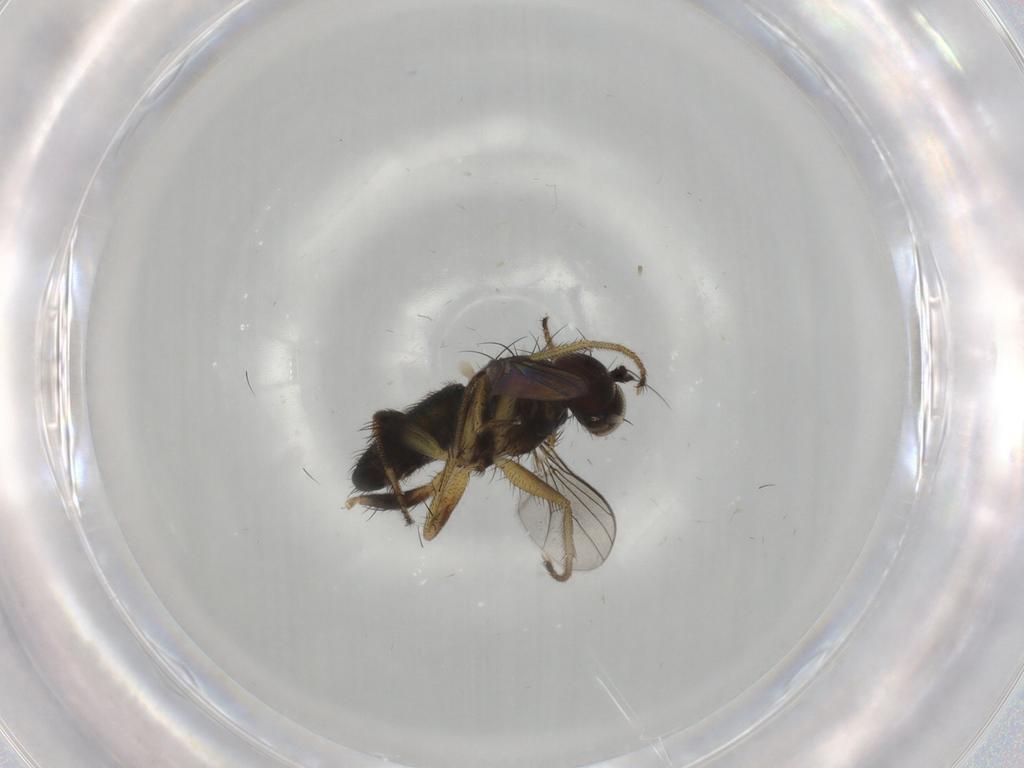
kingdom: Animalia
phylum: Arthropoda
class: Insecta
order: Diptera
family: Dolichopodidae
